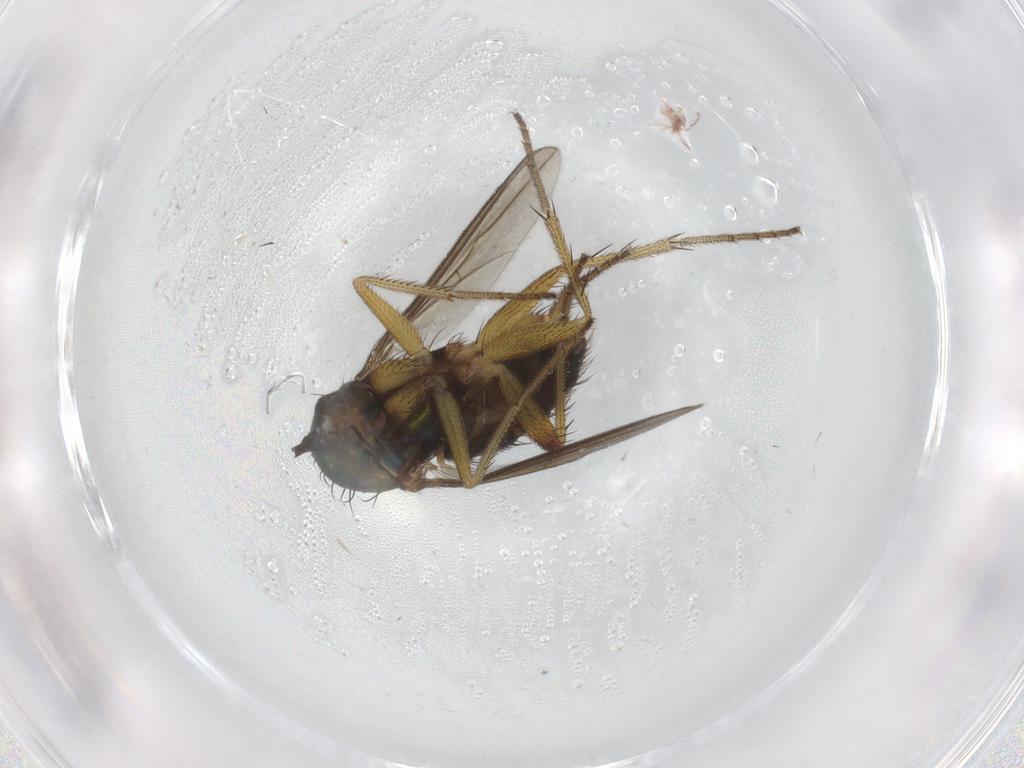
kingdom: Animalia
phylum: Arthropoda
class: Insecta
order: Diptera
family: Dolichopodidae
